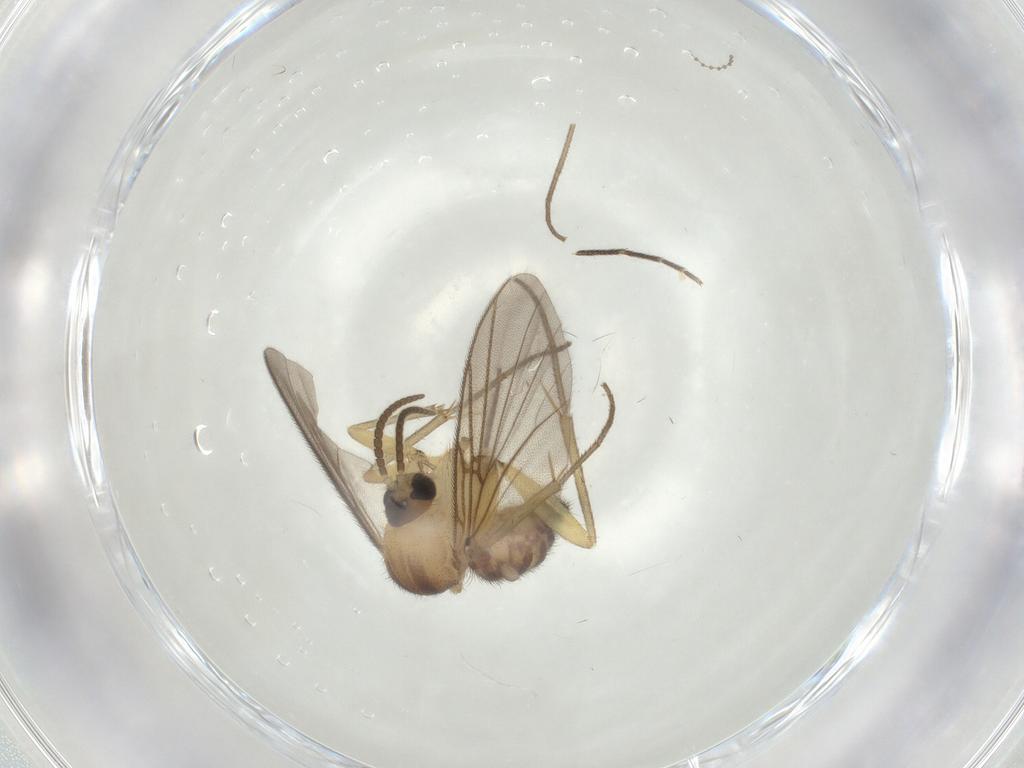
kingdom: Animalia
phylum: Arthropoda
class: Insecta
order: Diptera
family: Mycetophilidae
